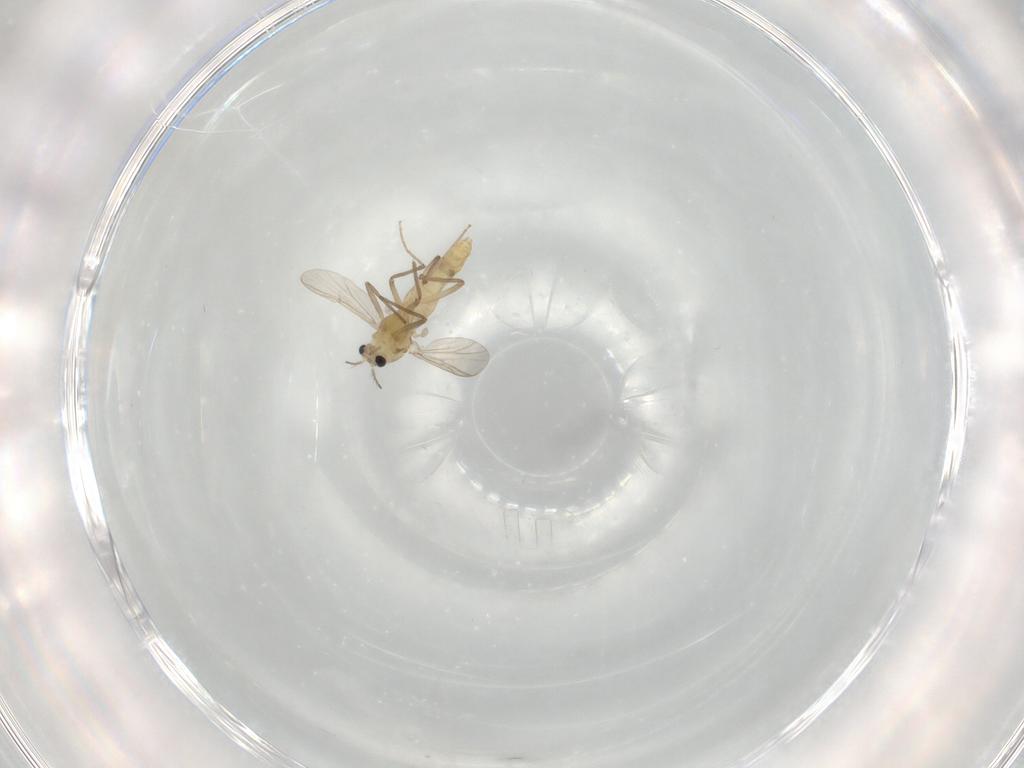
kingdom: Animalia
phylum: Arthropoda
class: Insecta
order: Diptera
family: Chironomidae
